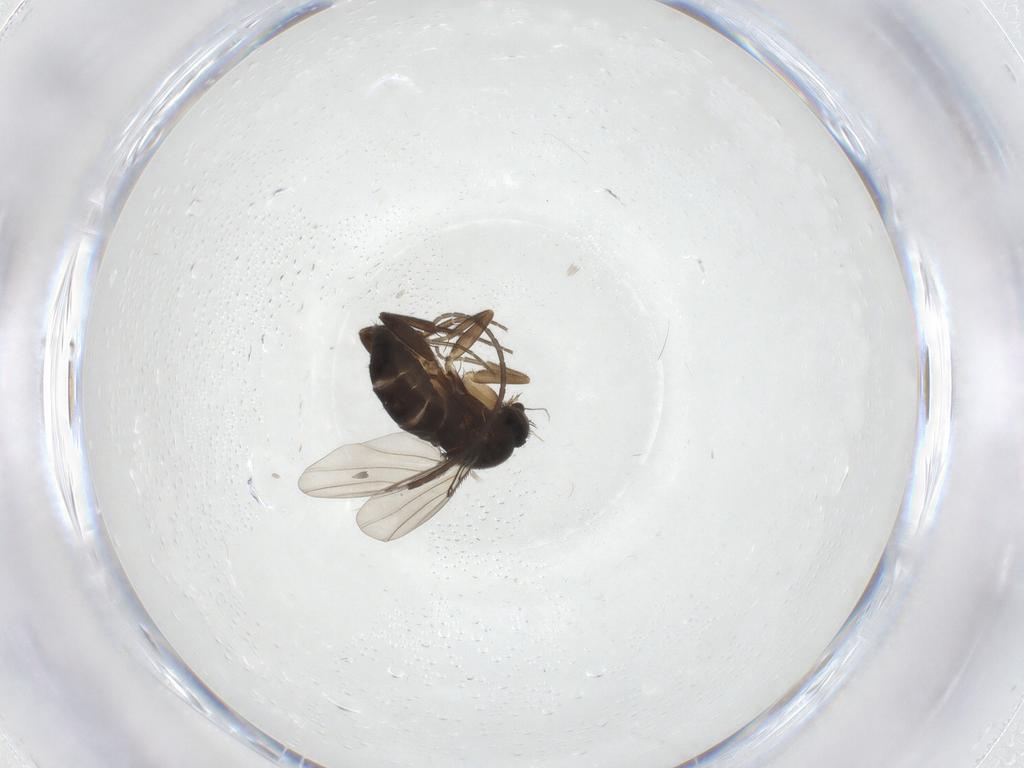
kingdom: Animalia
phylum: Arthropoda
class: Insecta
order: Diptera
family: Phoridae
